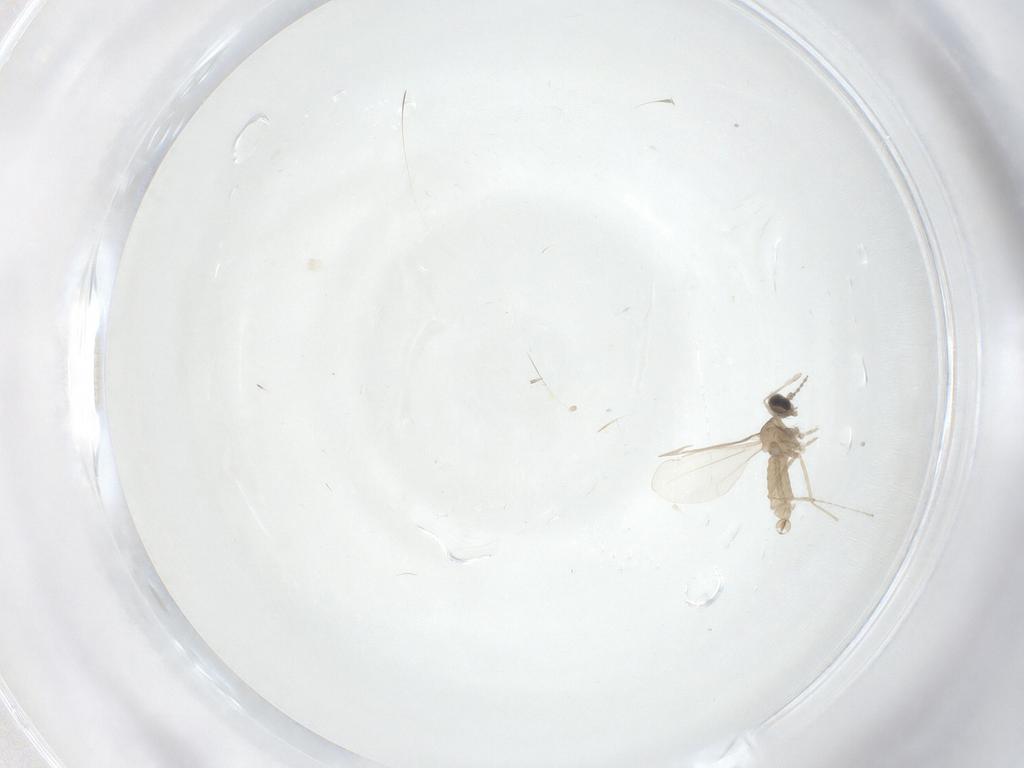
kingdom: Animalia
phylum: Arthropoda
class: Insecta
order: Diptera
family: Cecidomyiidae
